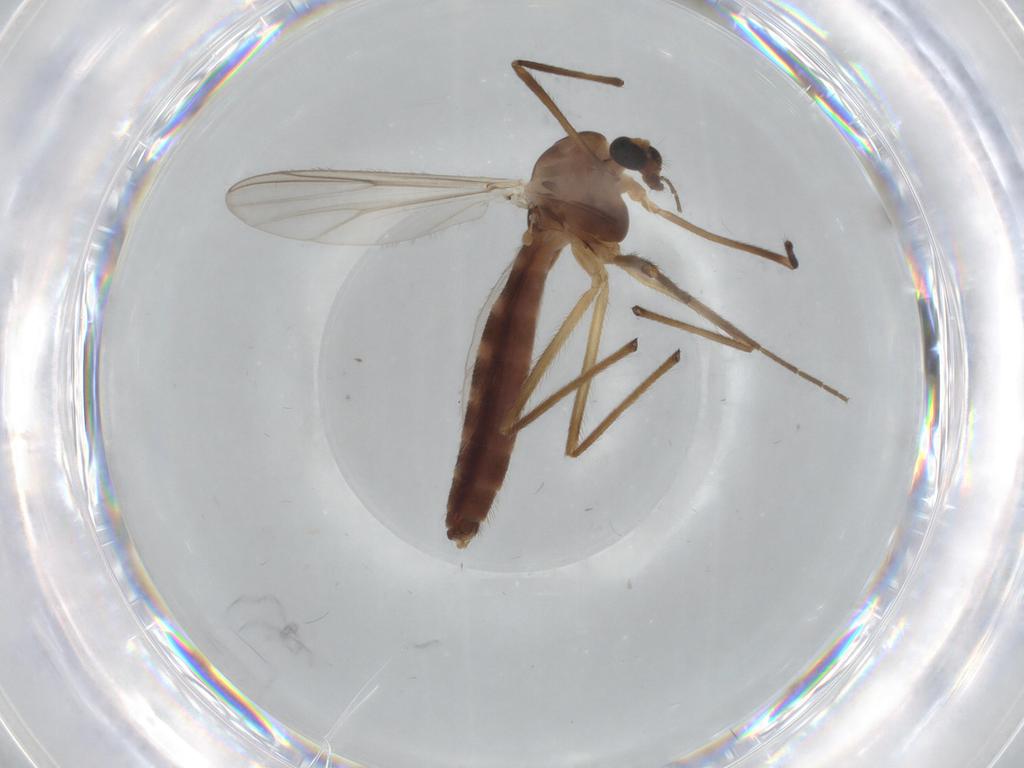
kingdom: Animalia
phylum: Arthropoda
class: Insecta
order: Diptera
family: Chironomidae
